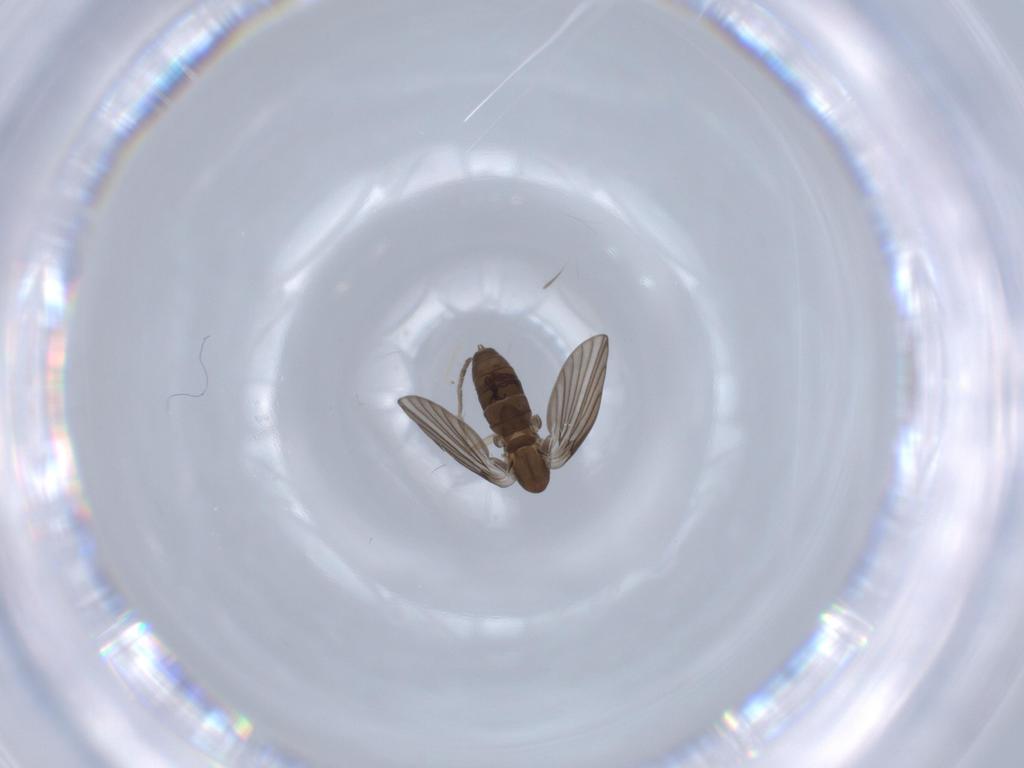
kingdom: Animalia
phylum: Arthropoda
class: Insecta
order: Diptera
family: Psychodidae
